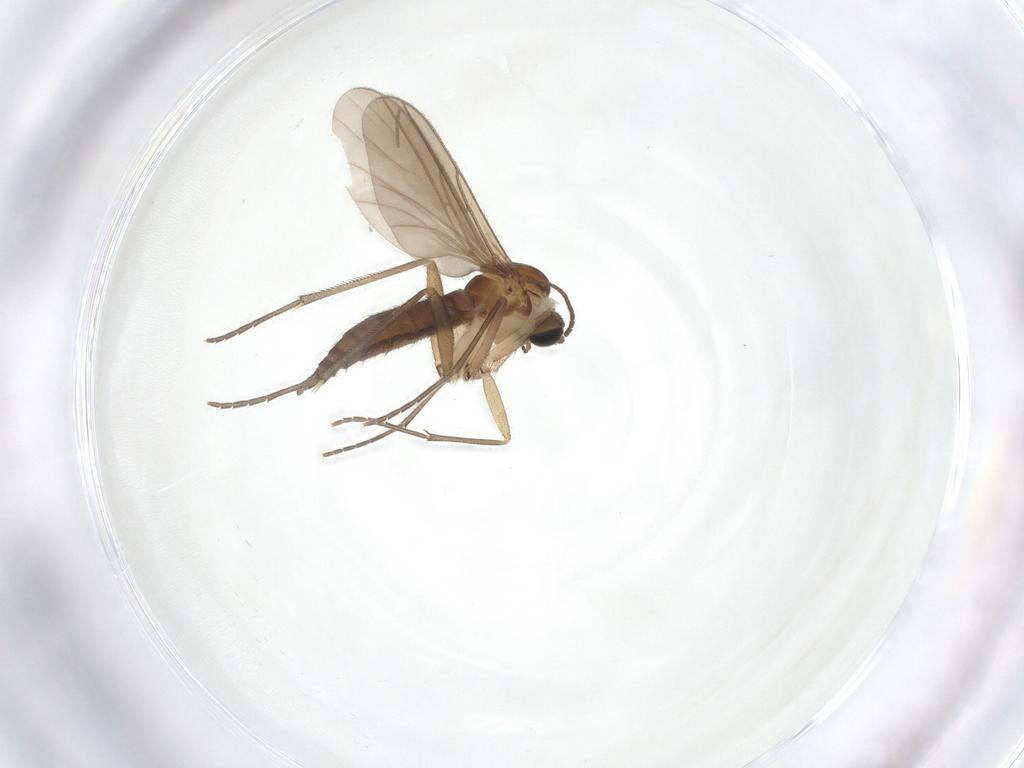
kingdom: Animalia
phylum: Arthropoda
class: Insecta
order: Diptera
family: Sciaridae
